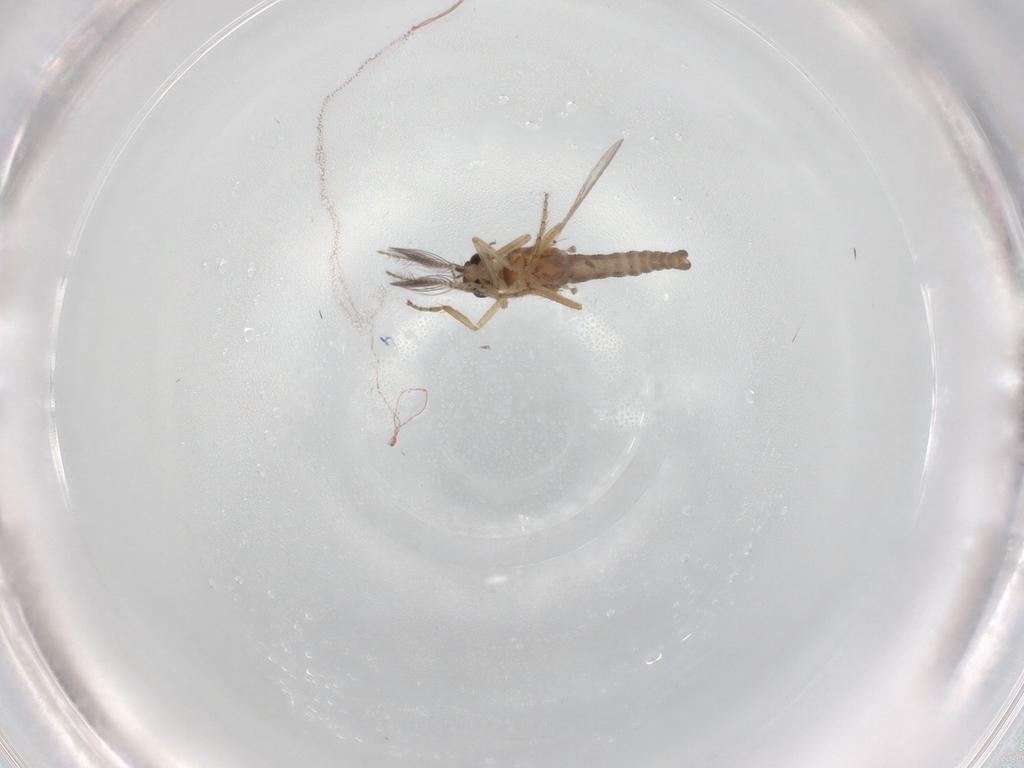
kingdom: Animalia
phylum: Arthropoda
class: Insecta
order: Diptera
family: Ceratopogonidae
